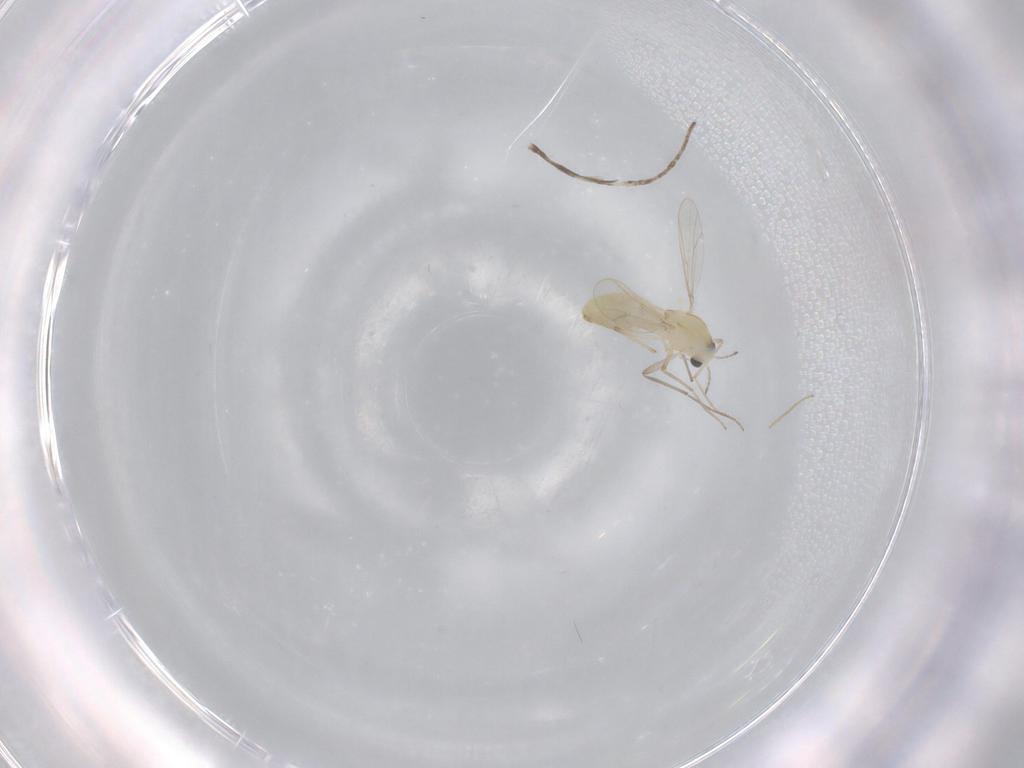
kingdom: Animalia
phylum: Arthropoda
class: Insecta
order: Diptera
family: Chironomidae
